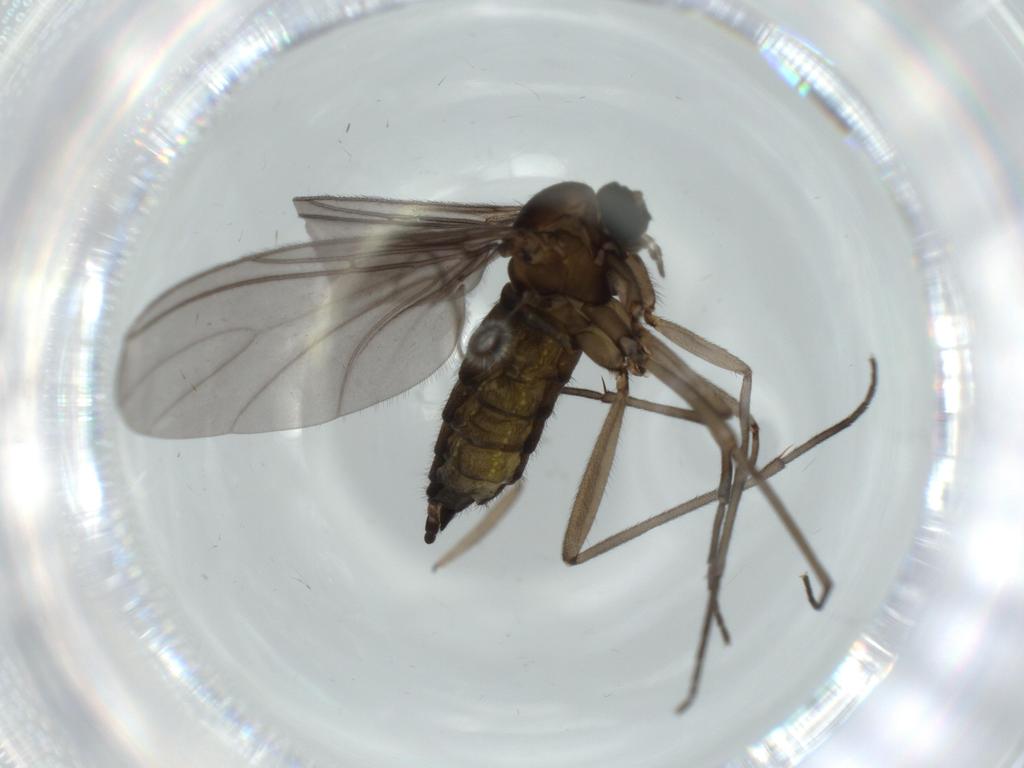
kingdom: Animalia
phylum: Arthropoda
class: Insecta
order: Diptera
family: Sciaridae
